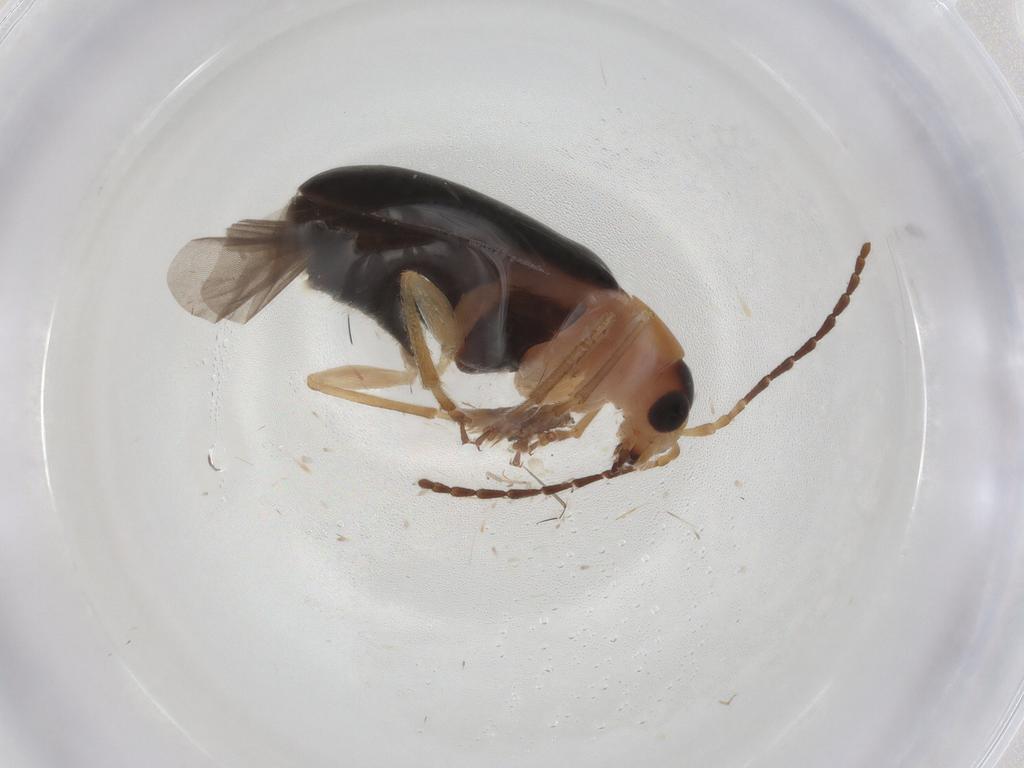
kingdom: Animalia
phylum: Arthropoda
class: Insecta
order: Coleoptera
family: Chrysomelidae
